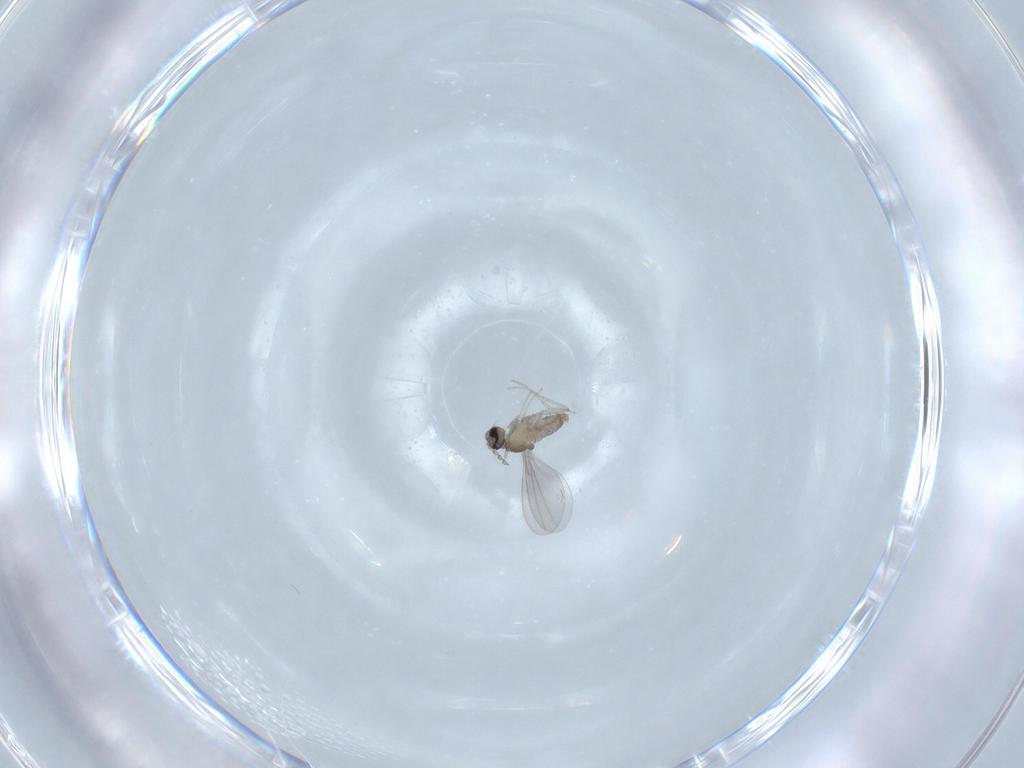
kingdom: Animalia
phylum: Arthropoda
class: Insecta
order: Diptera
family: Cecidomyiidae
